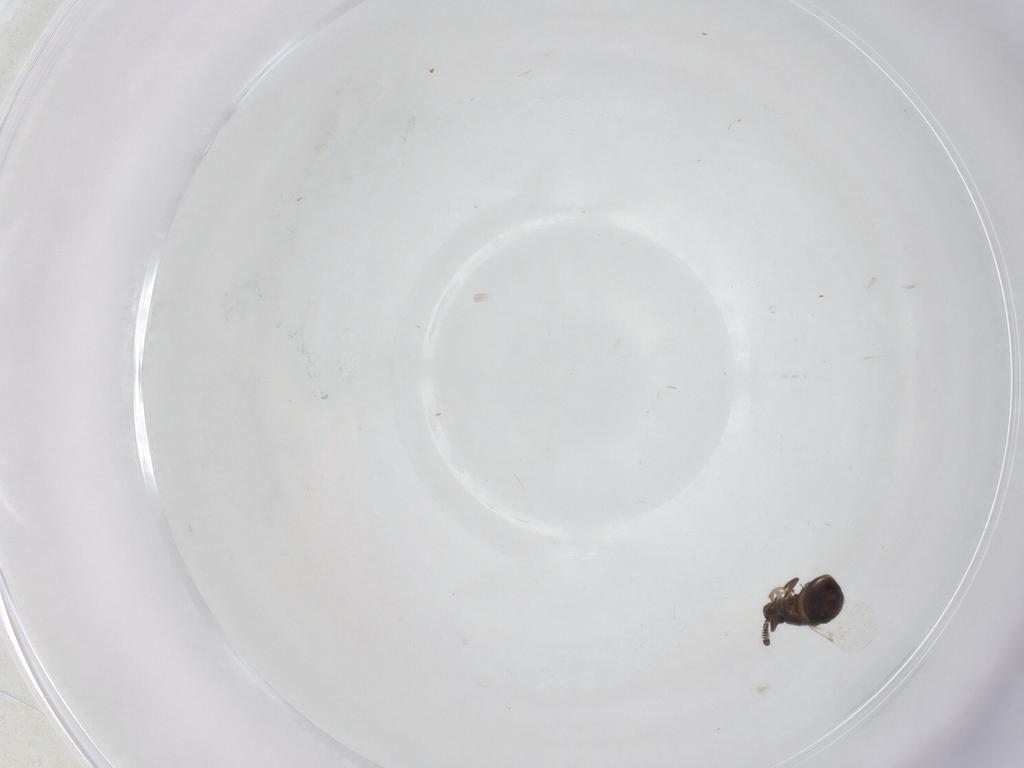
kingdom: Animalia
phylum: Arthropoda
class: Insecta
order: Diptera
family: Scatopsidae
